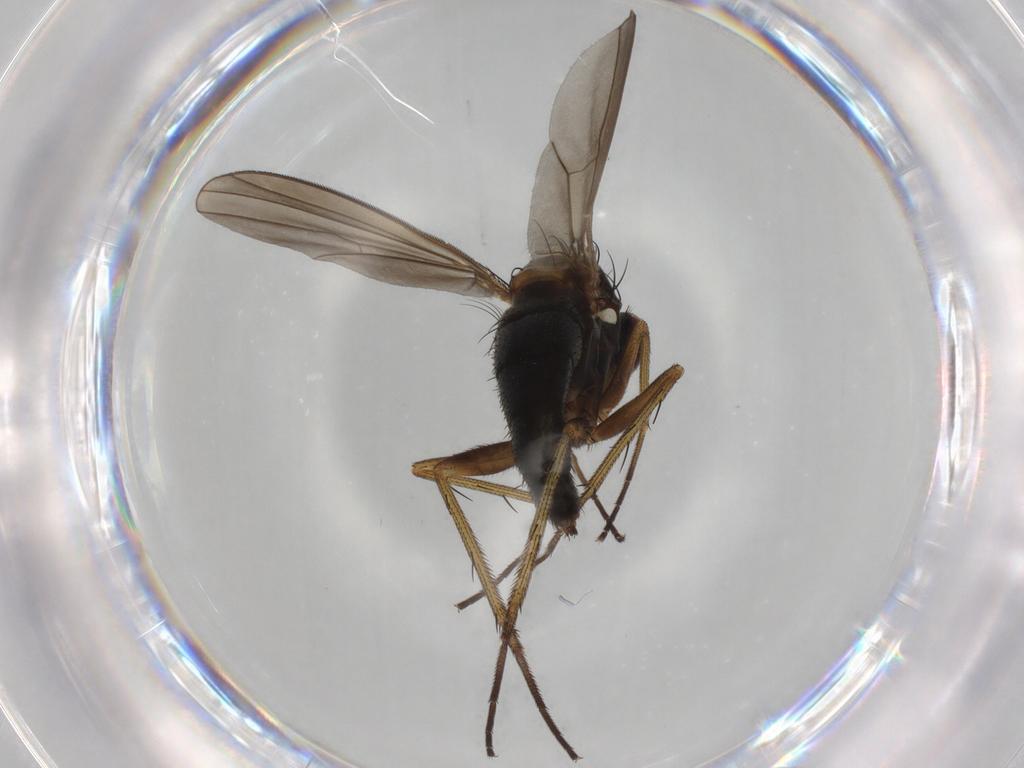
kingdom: Animalia
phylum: Arthropoda
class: Insecta
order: Diptera
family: Dolichopodidae
